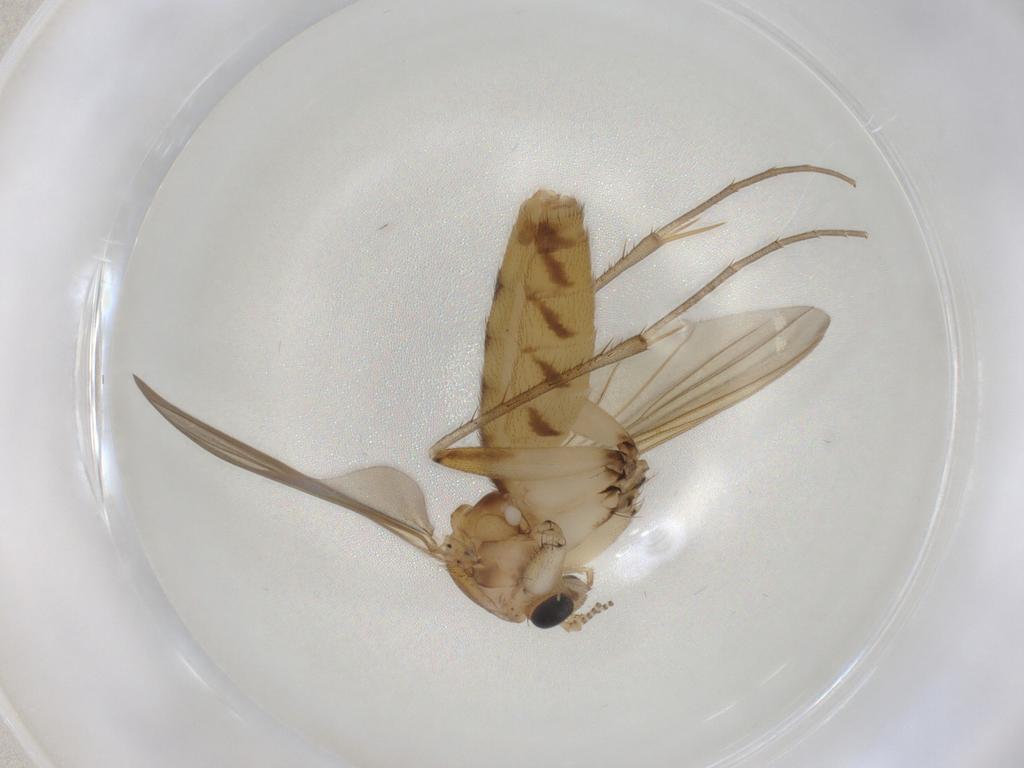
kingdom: Animalia
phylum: Arthropoda
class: Insecta
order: Diptera
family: Mycetophilidae
